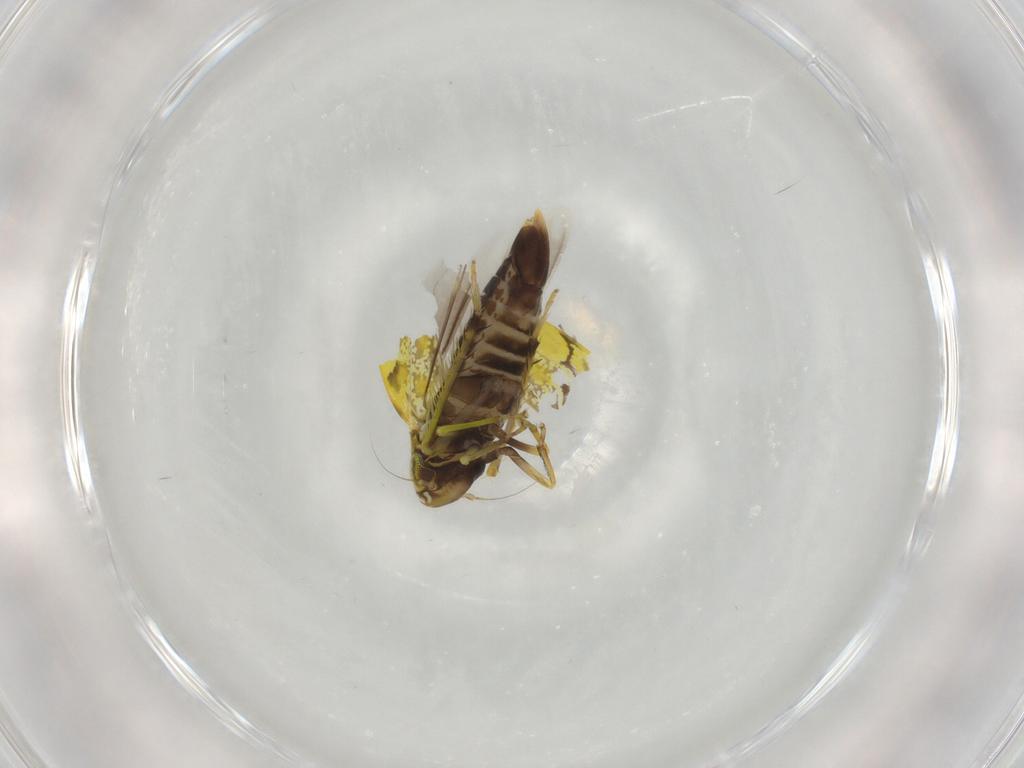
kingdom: Animalia
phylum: Arthropoda
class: Insecta
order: Hemiptera
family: Cicadellidae
